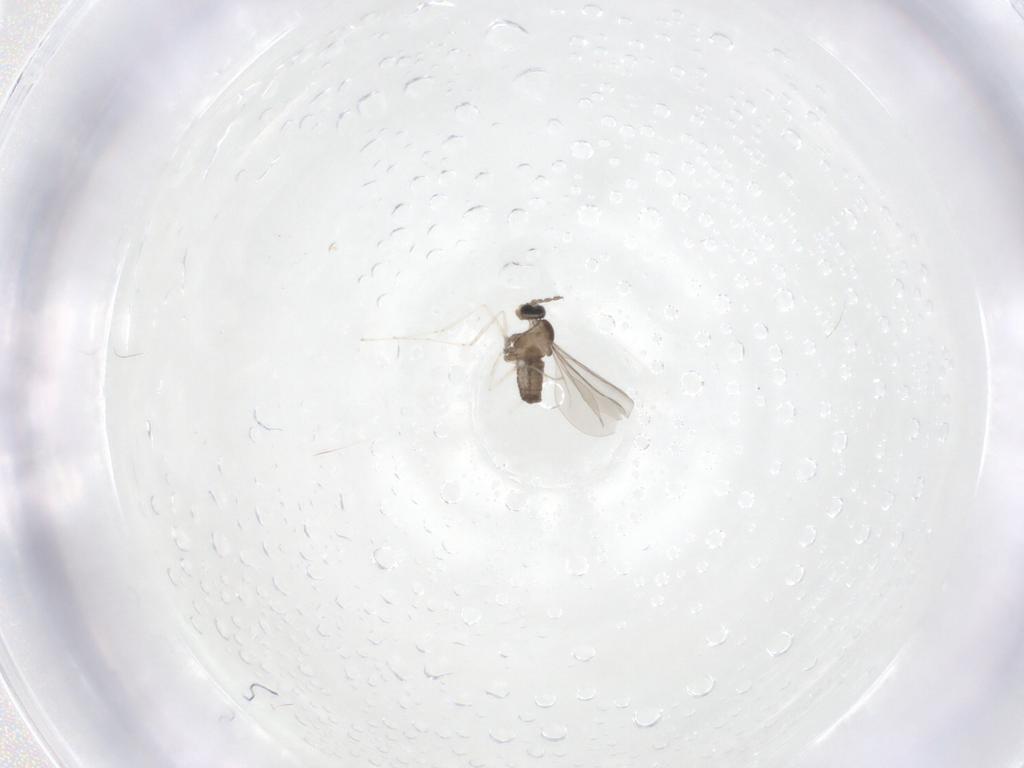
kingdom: Animalia
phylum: Arthropoda
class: Insecta
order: Diptera
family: Cecidomyiidae
